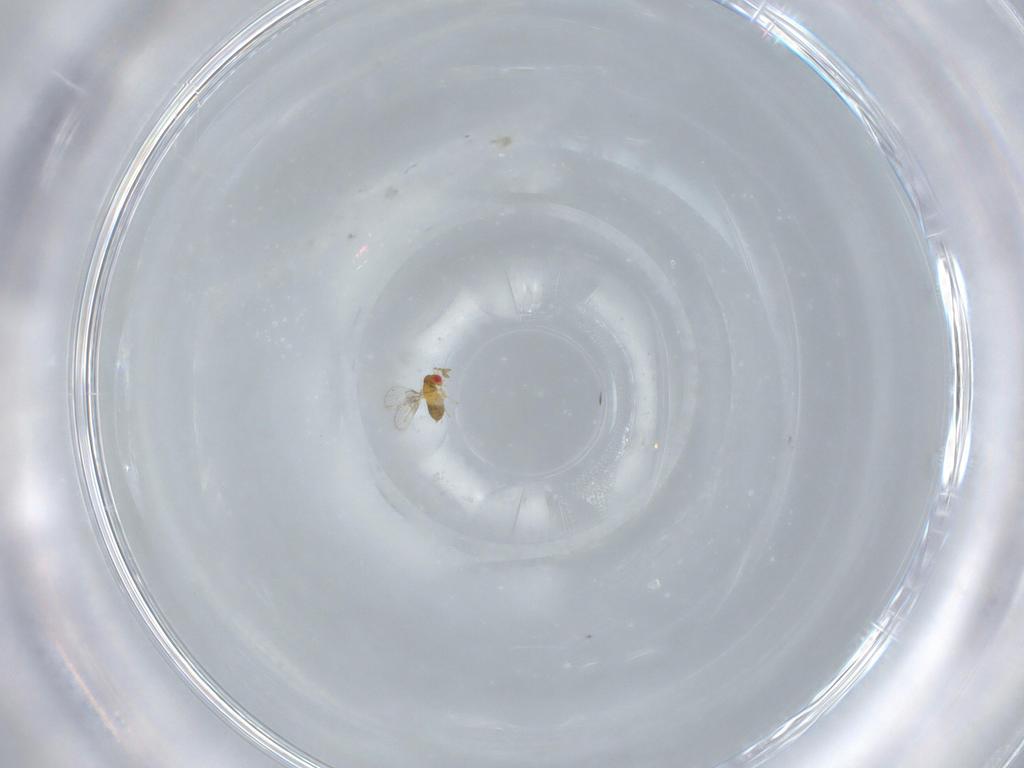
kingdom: Animalia
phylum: Arthropoda
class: Insecta
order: Hymenoptera
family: Trichogrammatidae
